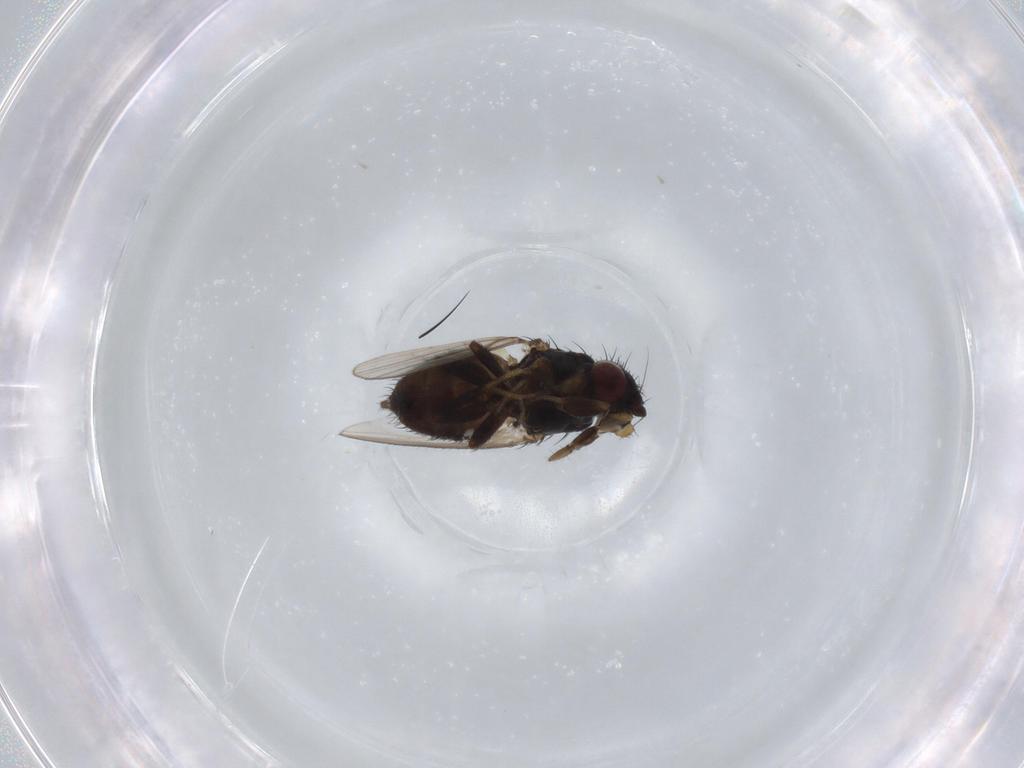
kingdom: Animalia
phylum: Arthropoda
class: Insecta
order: Diptera
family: Milichiidae
